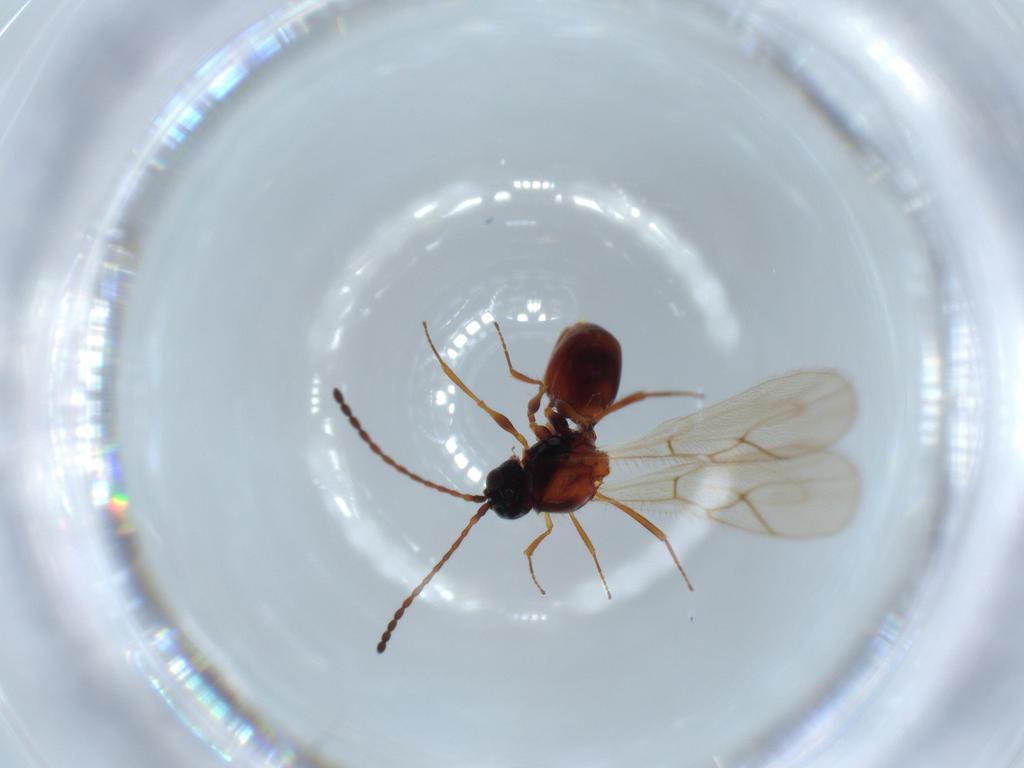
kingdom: Animalia
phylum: Arthropoda
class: Insecta
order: Hymenoptera
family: Figitidae
